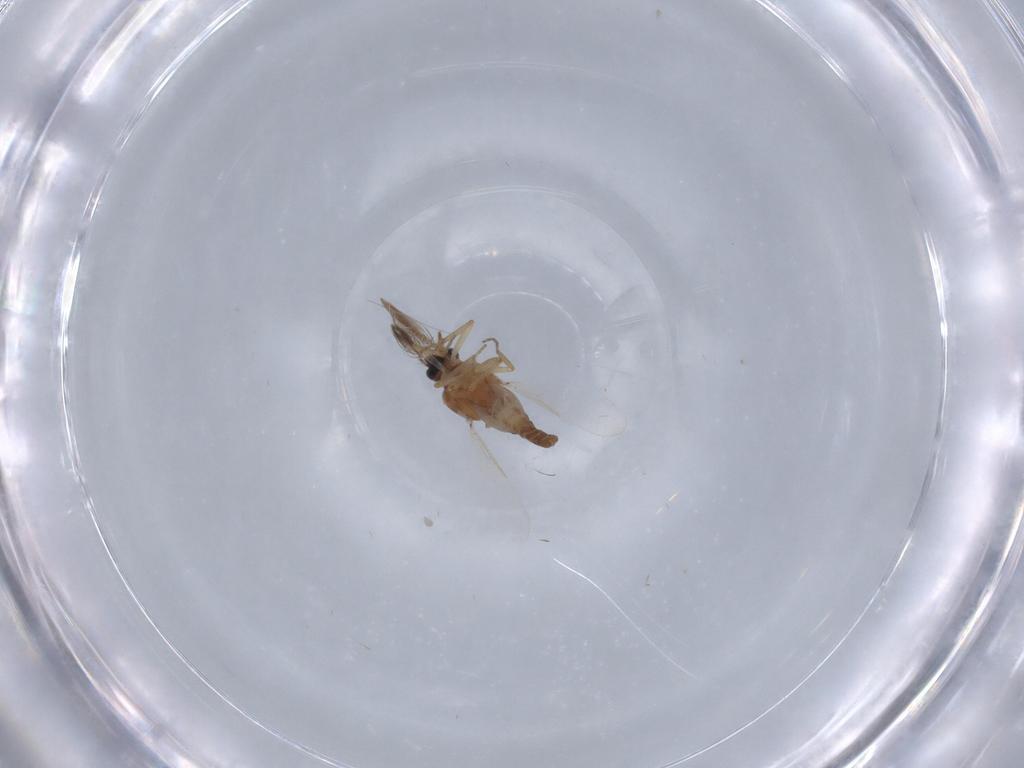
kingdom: Animalia
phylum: Arthropoda
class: Insecta
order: Diptera
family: Ceratopogonidae
